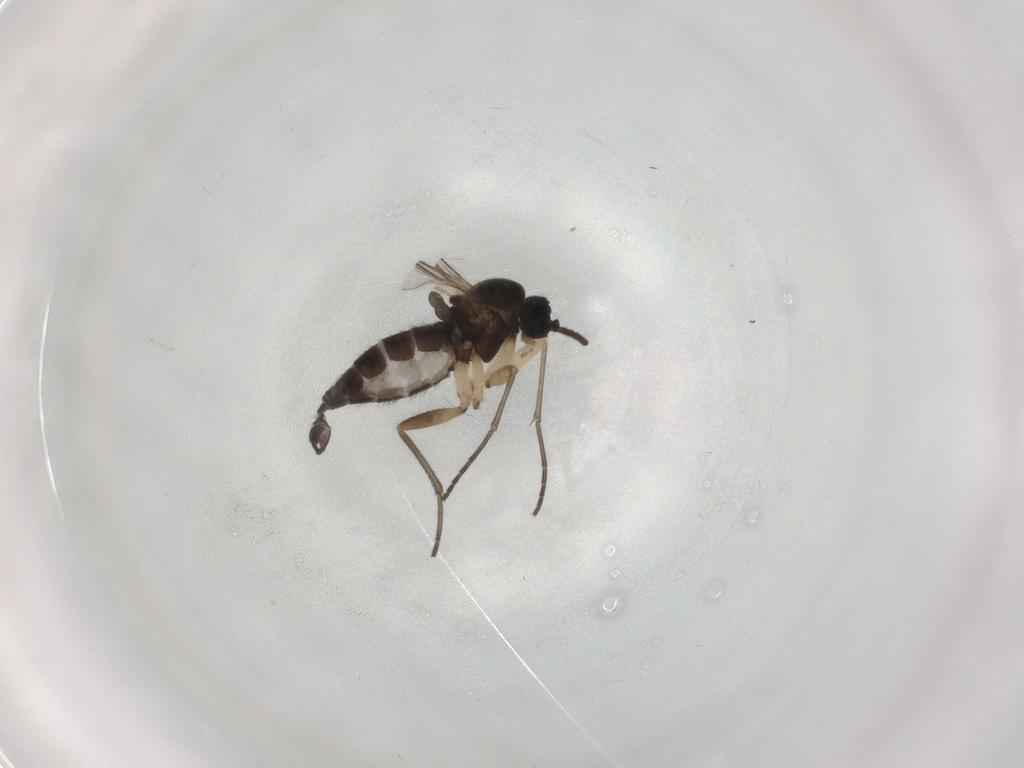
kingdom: Animalia
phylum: Arthropoda
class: Insecta
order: Diptera
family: Sciaridae
